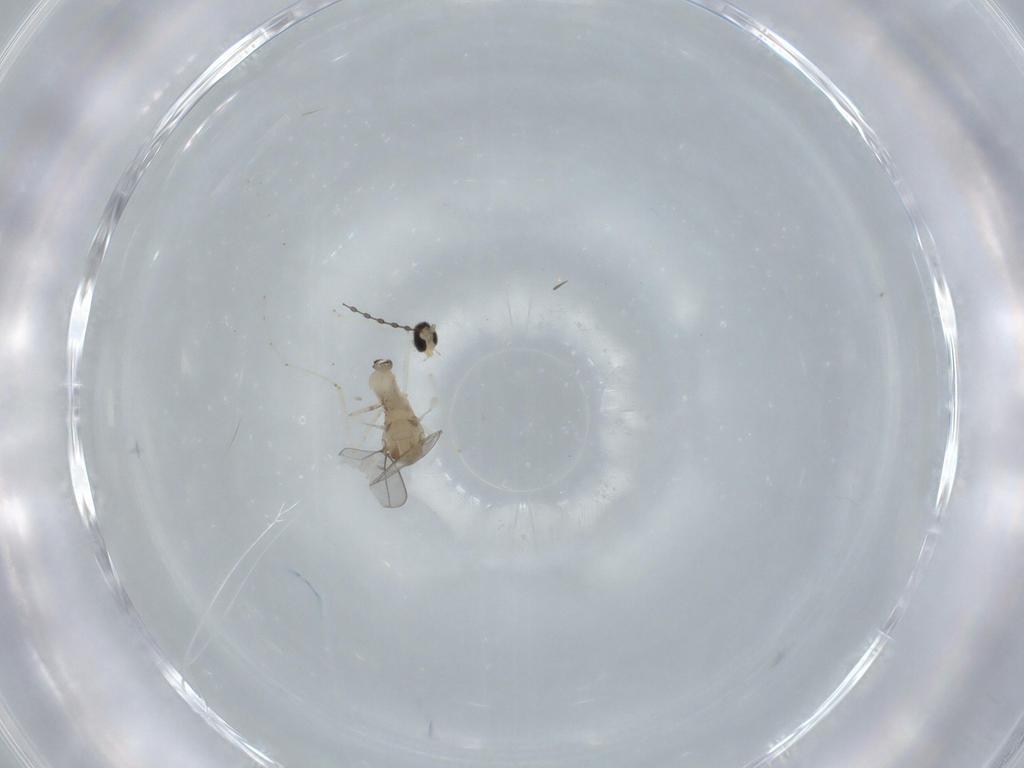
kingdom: Animalia
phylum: Arthropoda
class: Insecta
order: Diptera
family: Cecidomyiidae
